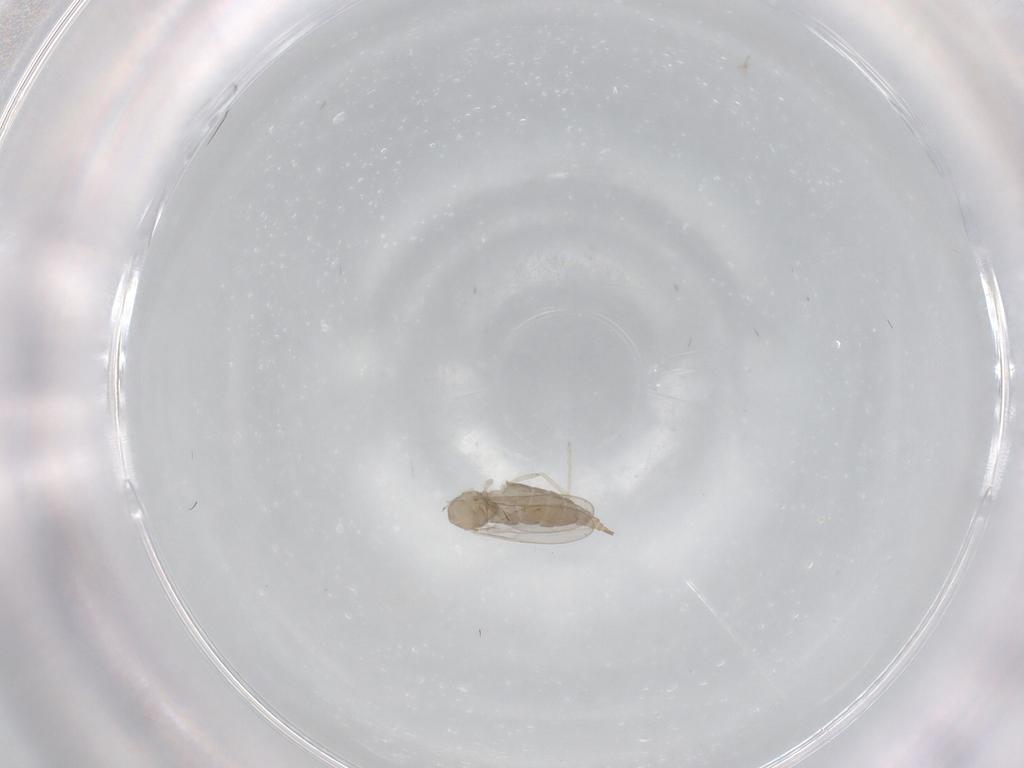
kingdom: Animalia
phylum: Arthropoda
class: Insecta
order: Diptera
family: Cecidomyiidae
